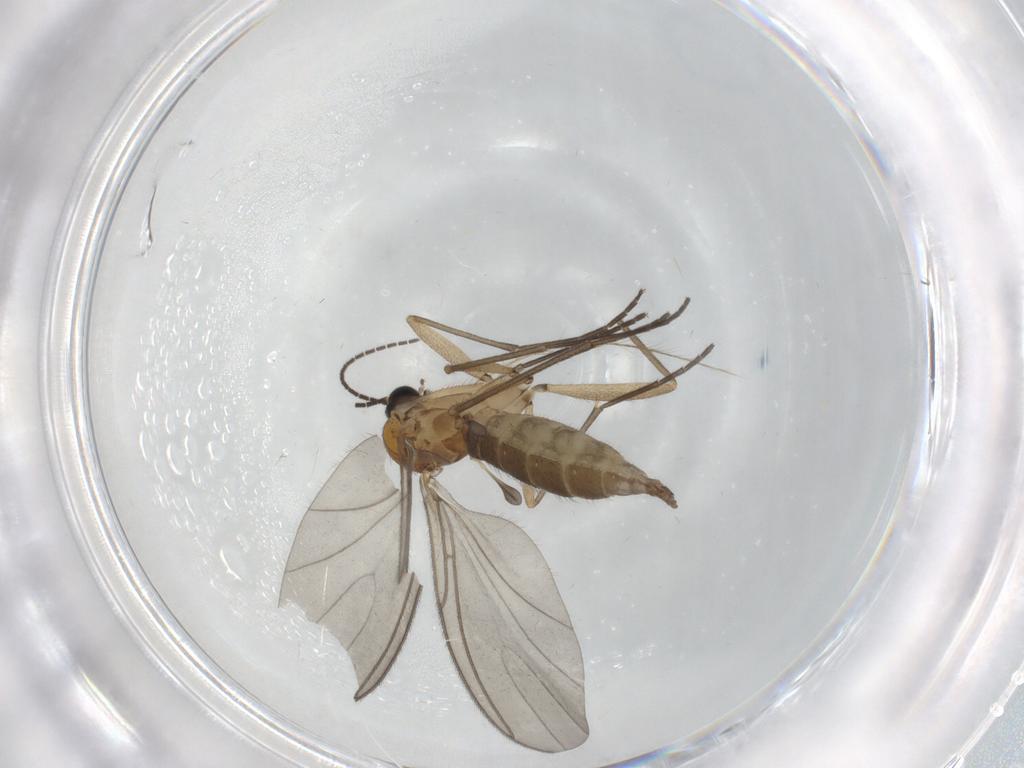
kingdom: Animalia
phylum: Arthropoda
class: Insecta
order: Diptera
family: Sciaridae
